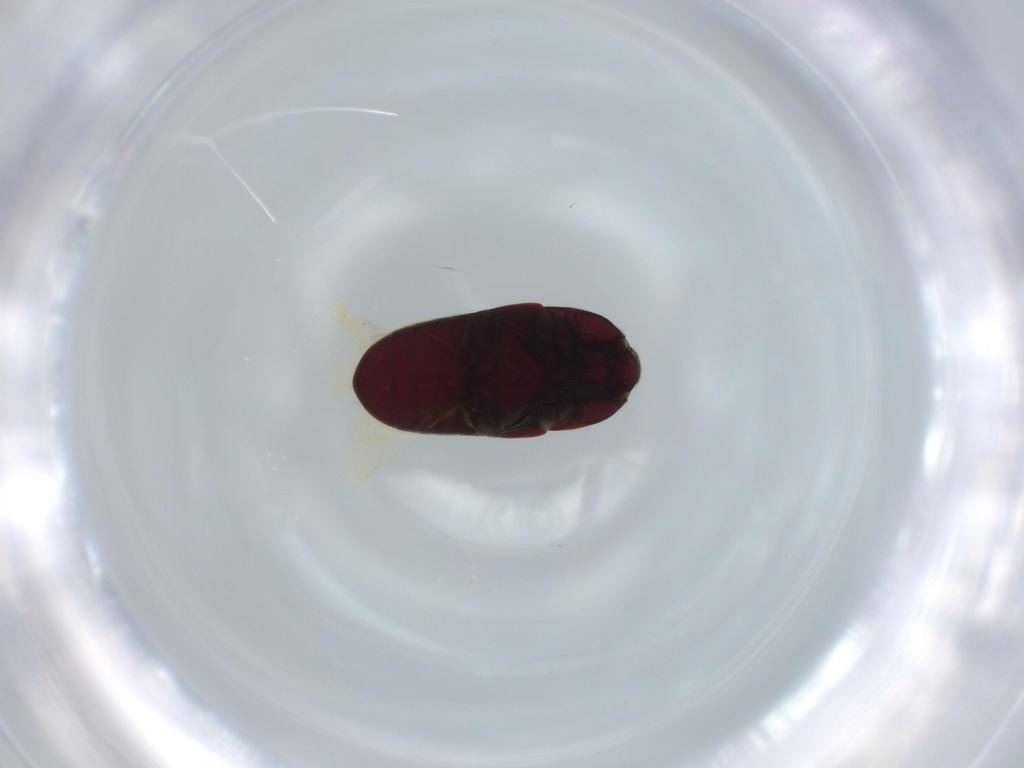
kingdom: Animalia
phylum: Arthropoda
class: Insecta
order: Coleoptera
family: Throscidae
